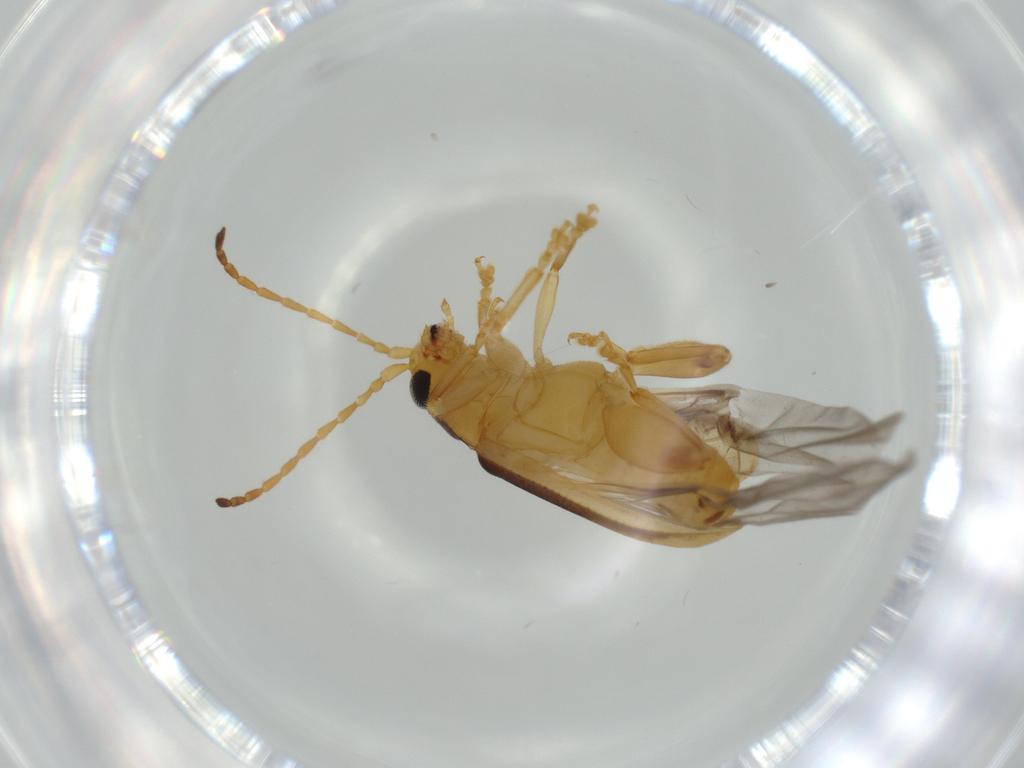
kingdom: Animalia
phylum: Arthropoda
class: Insecta
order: Coleoptera
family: Chrysomelidae
